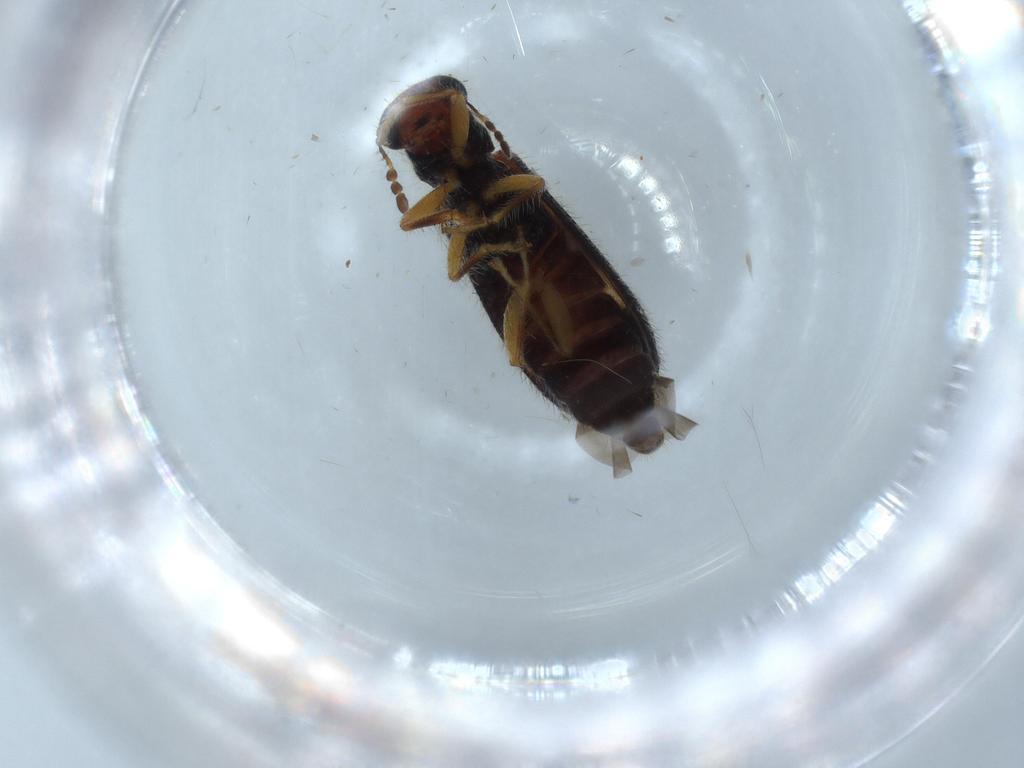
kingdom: Animalia
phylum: Arthropoda
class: Insecta
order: Coleoptera
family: Cleridae
